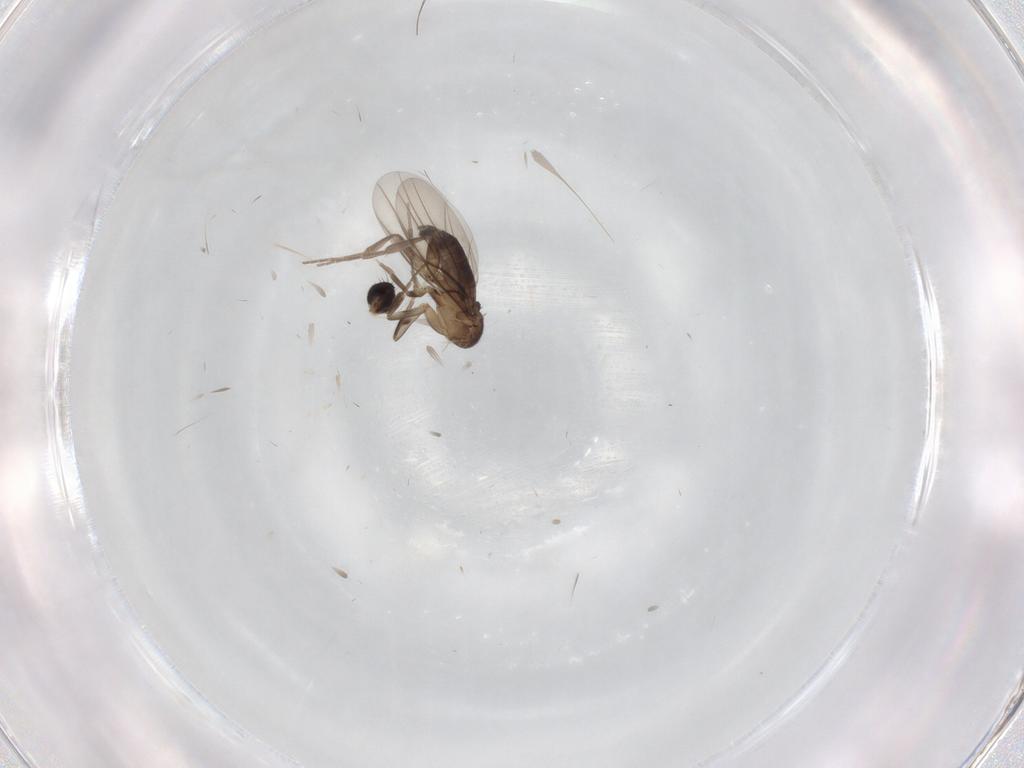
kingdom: Animalia
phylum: Arthropoda
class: Insecta
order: Diptera
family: Phoridae
